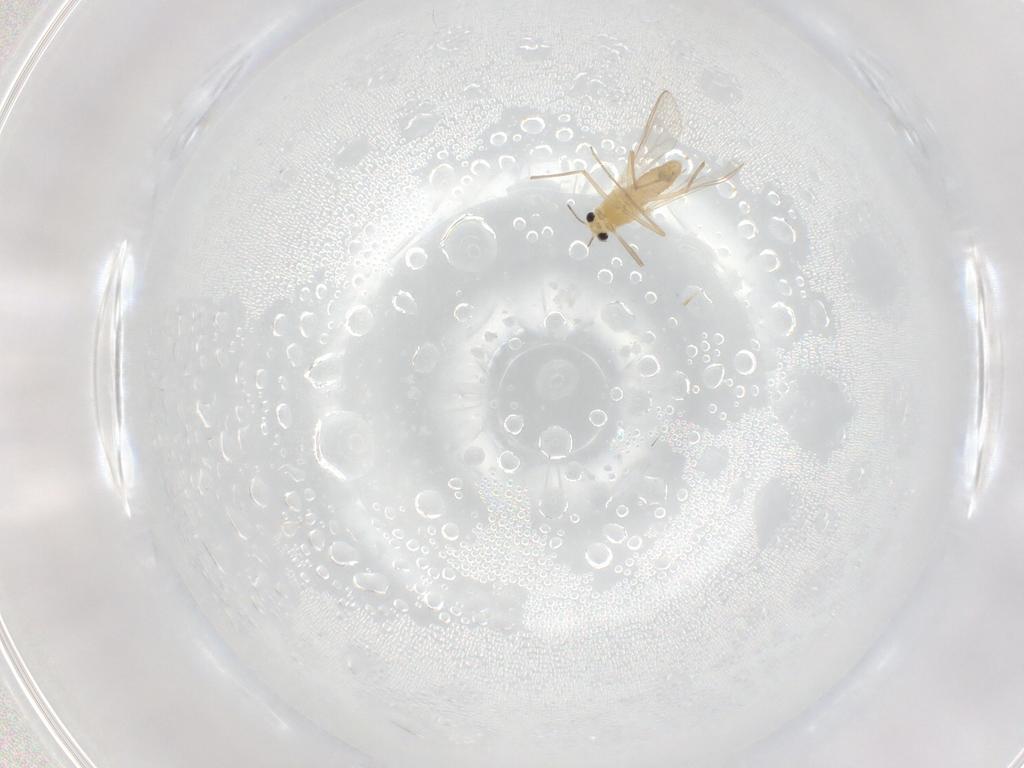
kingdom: Animalia
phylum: Arthropoda
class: Insecta
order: Diptera
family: Chironomidae
